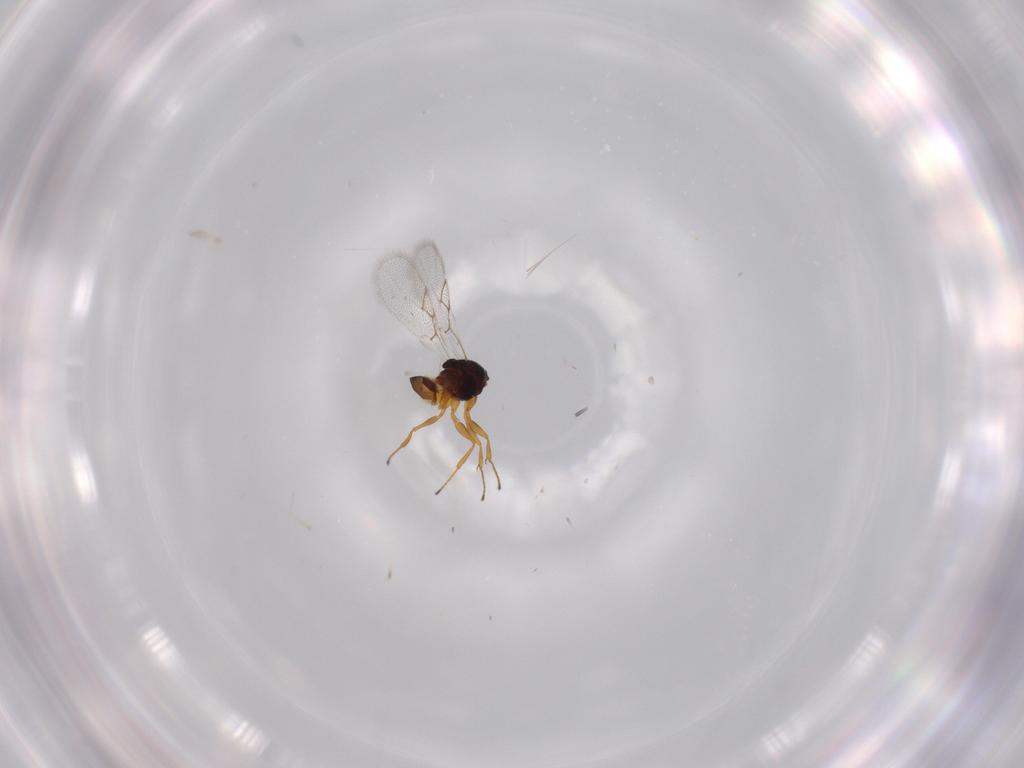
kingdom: Animalia
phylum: Arthropoda
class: Insecta
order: Hymenoptera
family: Figitidae
